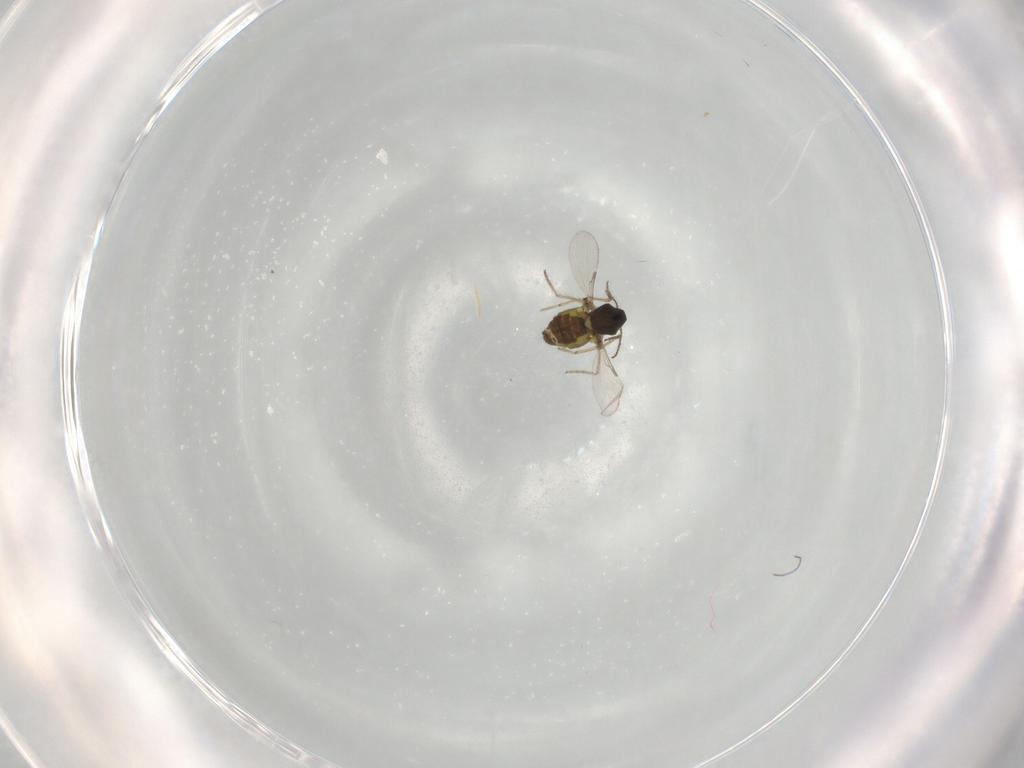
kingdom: Animalia
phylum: Arthropoda
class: Insecta
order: Diptera
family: Ceratopogonidae
